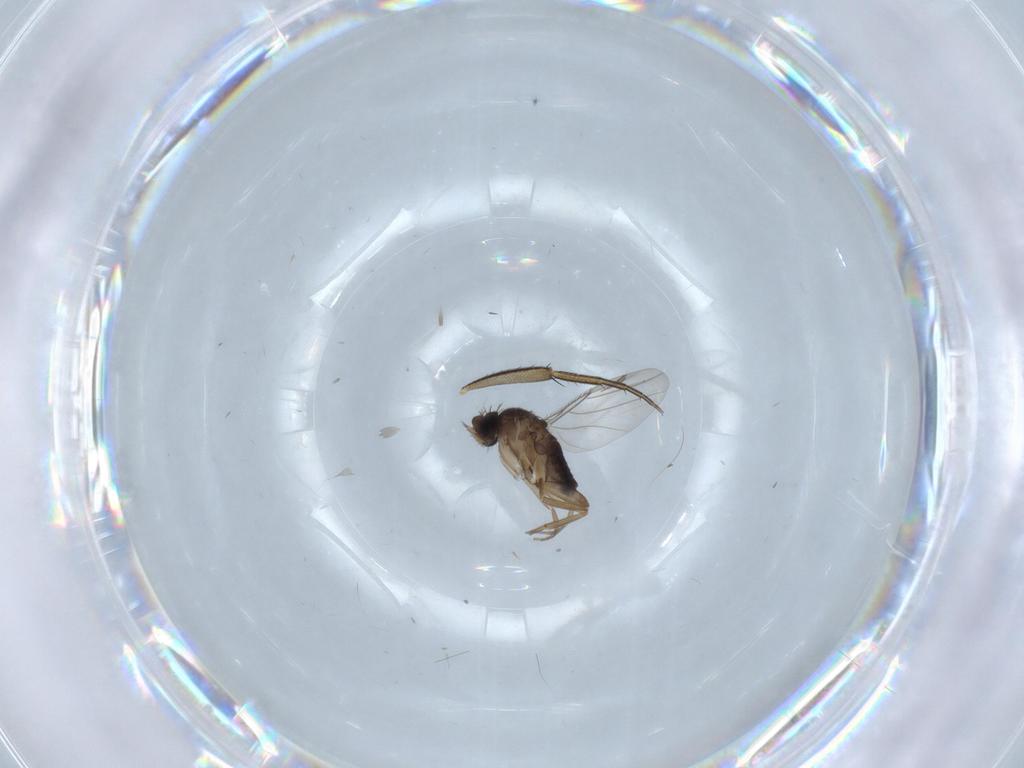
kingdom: Animalia
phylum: Arthropoda
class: Insecta
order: Diptera
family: Phoridae
